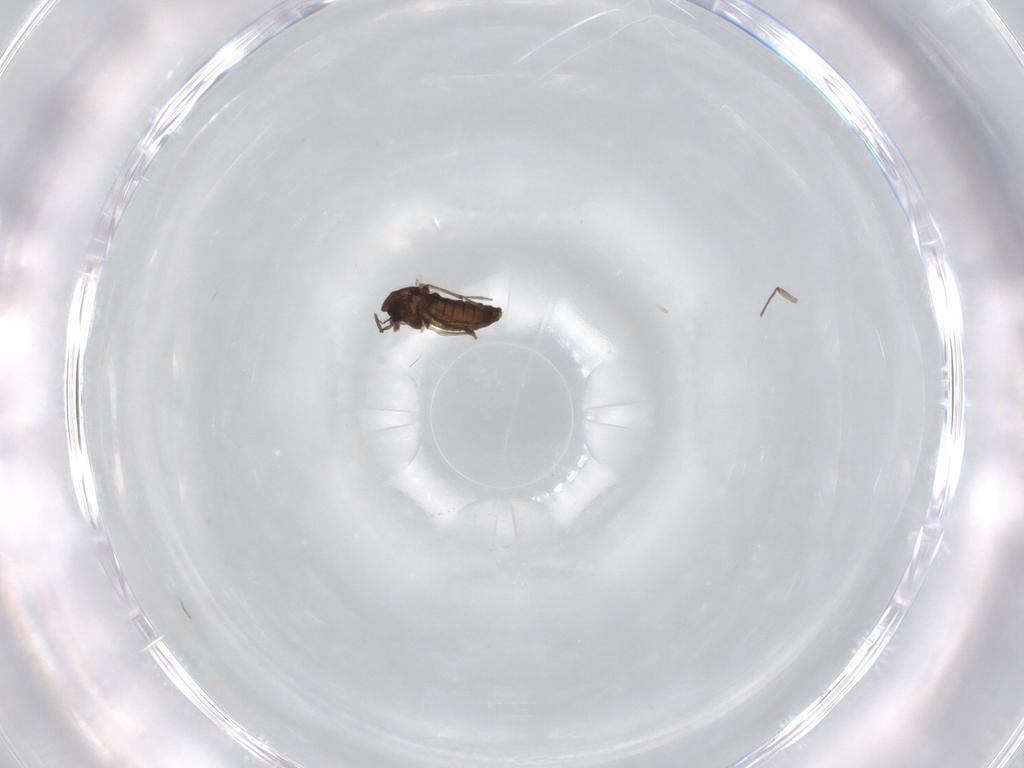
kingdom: Animalia
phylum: Arthropoda
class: Insecta
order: Diptera
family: Chironomidae
